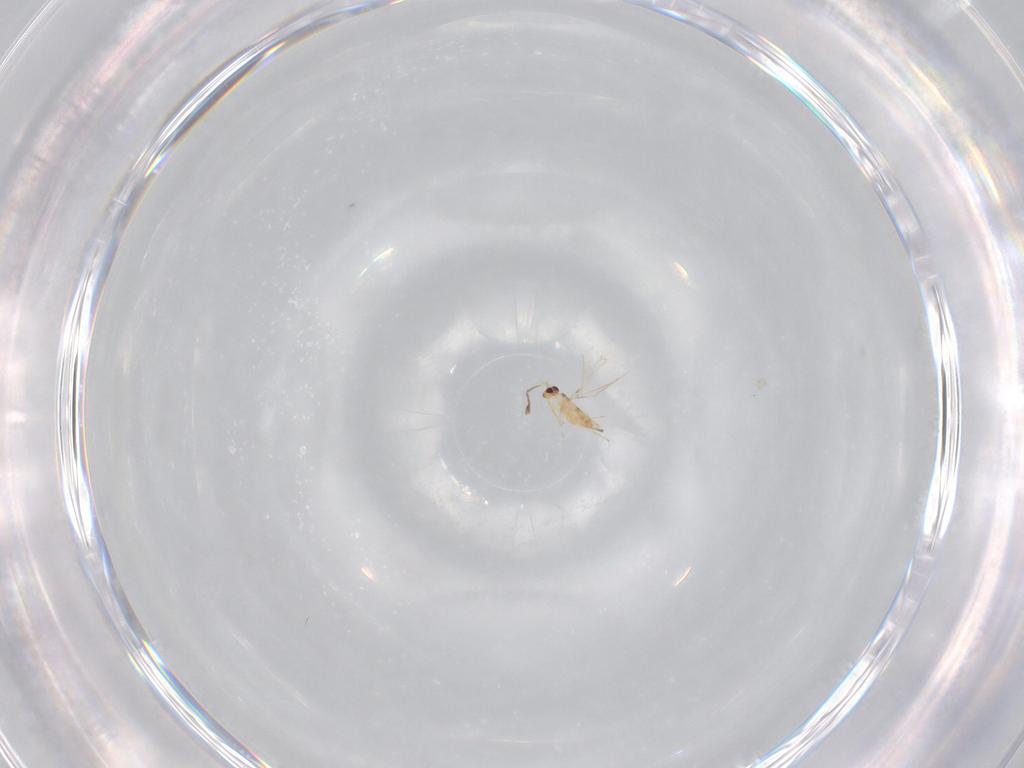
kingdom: Animalia
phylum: Arthropoda
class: Insecta
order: Hymenoptera
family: Mymaridae
